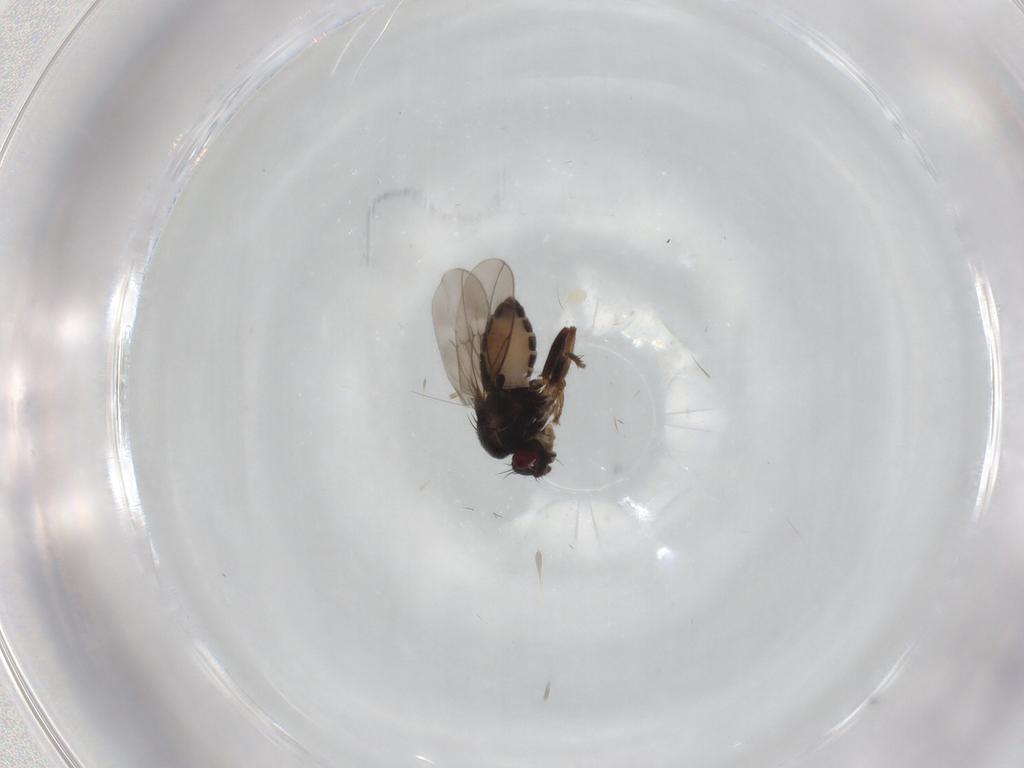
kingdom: Animalia
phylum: Arthropoda
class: Insecta
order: Diptera
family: Sphaeroceridae
